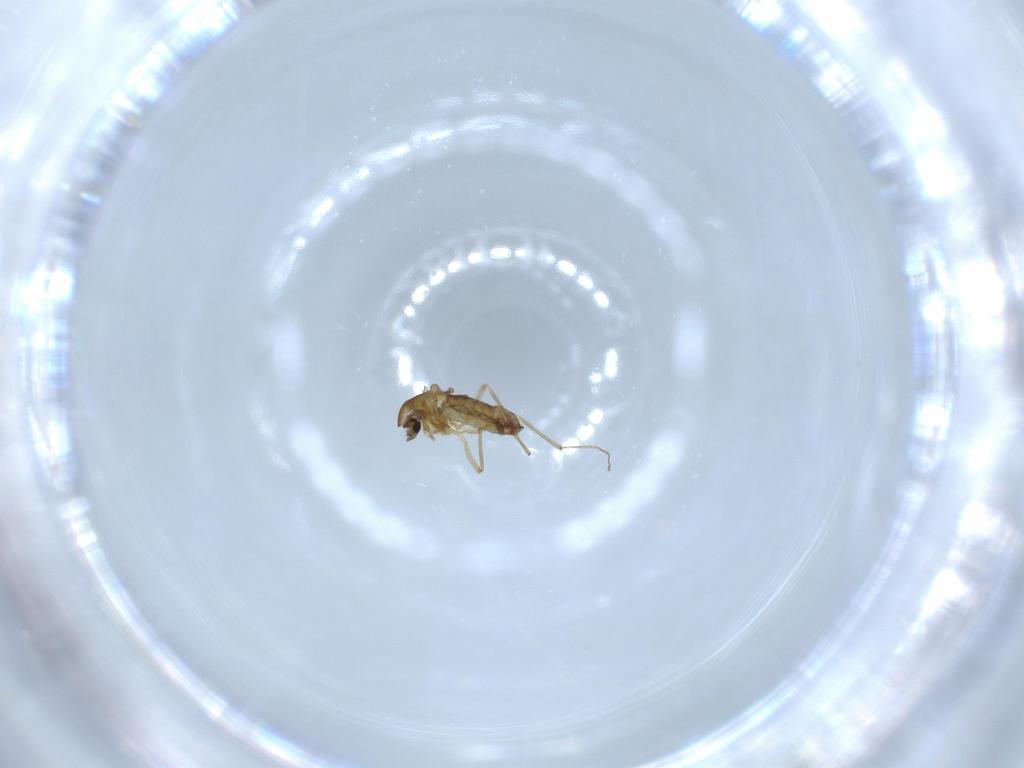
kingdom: Animalia
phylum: Arthropoda
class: Insecta
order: Diptera
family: Chironomidae
